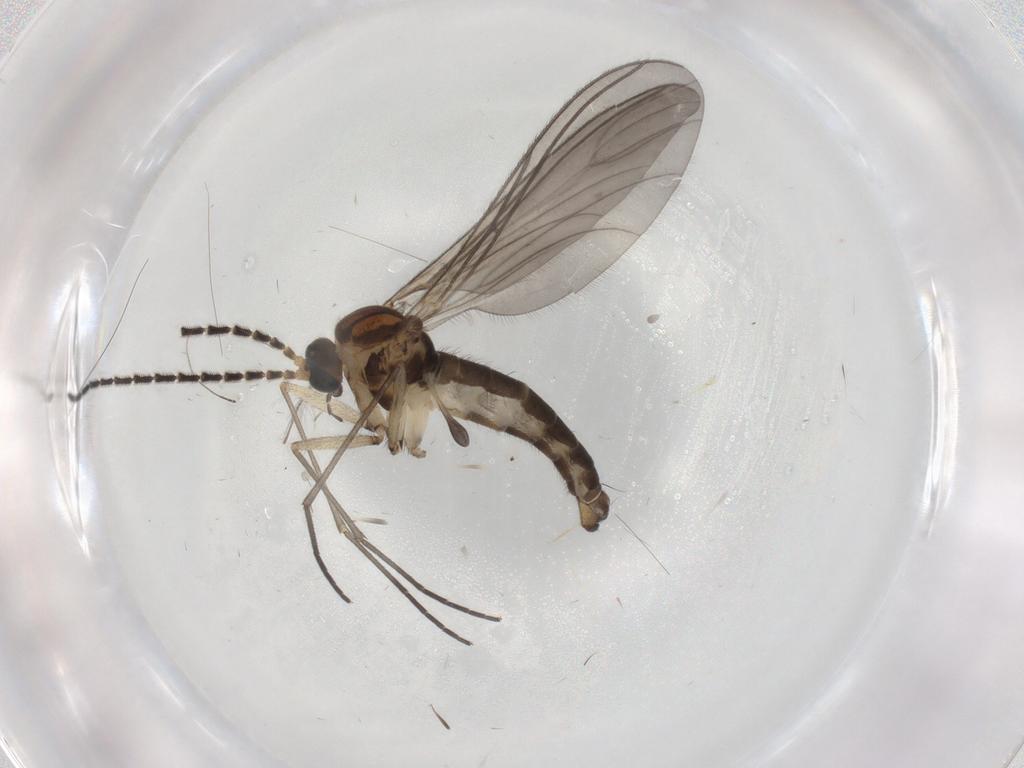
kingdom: Animalia
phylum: Arthropoda
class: Insecta
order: Diptera
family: Sciaridae
